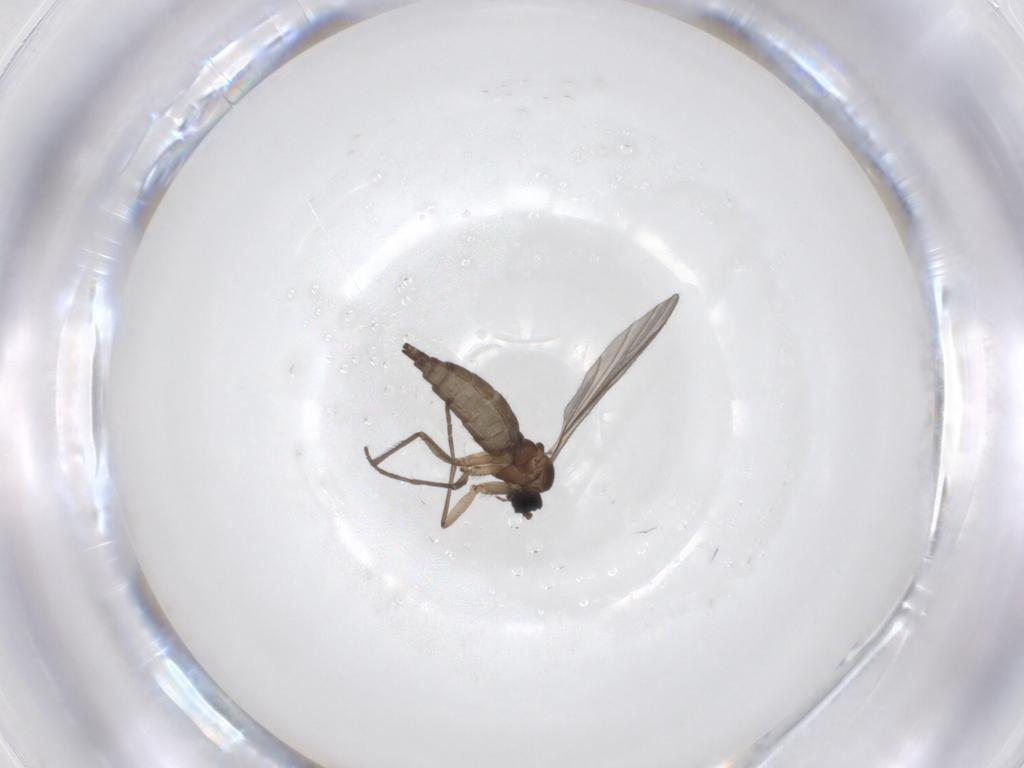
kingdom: Animalia
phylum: Arthropoda
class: Insecta
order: Diptera
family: Sciaridae
